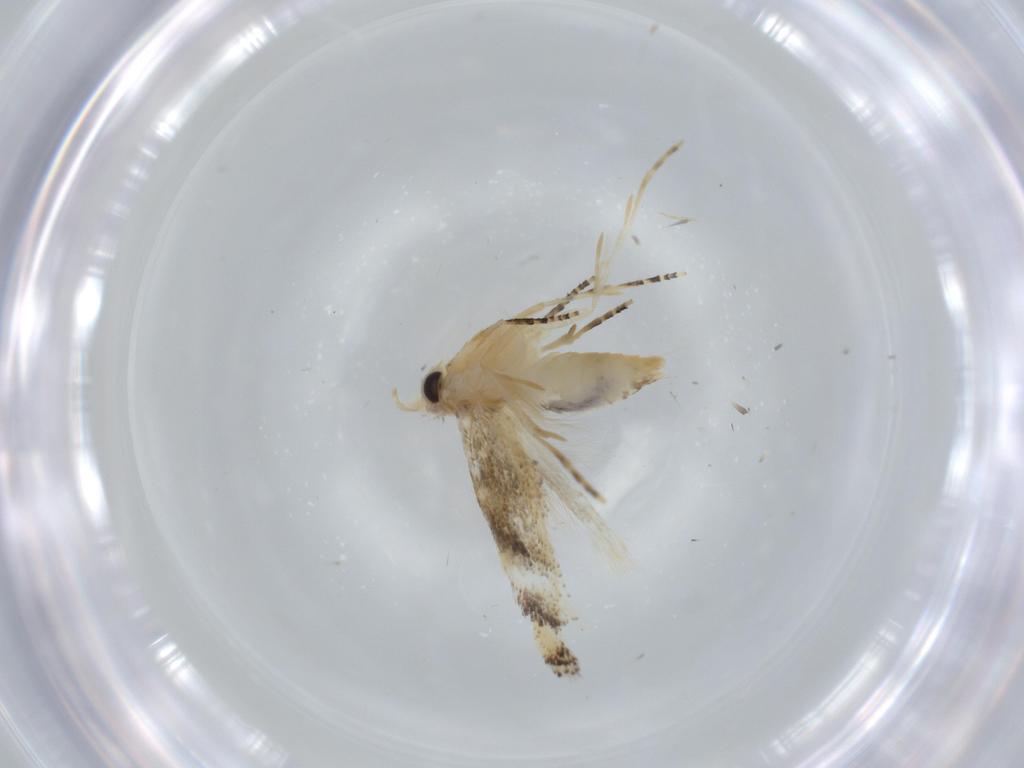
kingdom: Animalia
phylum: Arthropoda
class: Insecta
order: Lepidoptera
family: Bucculatricidae
